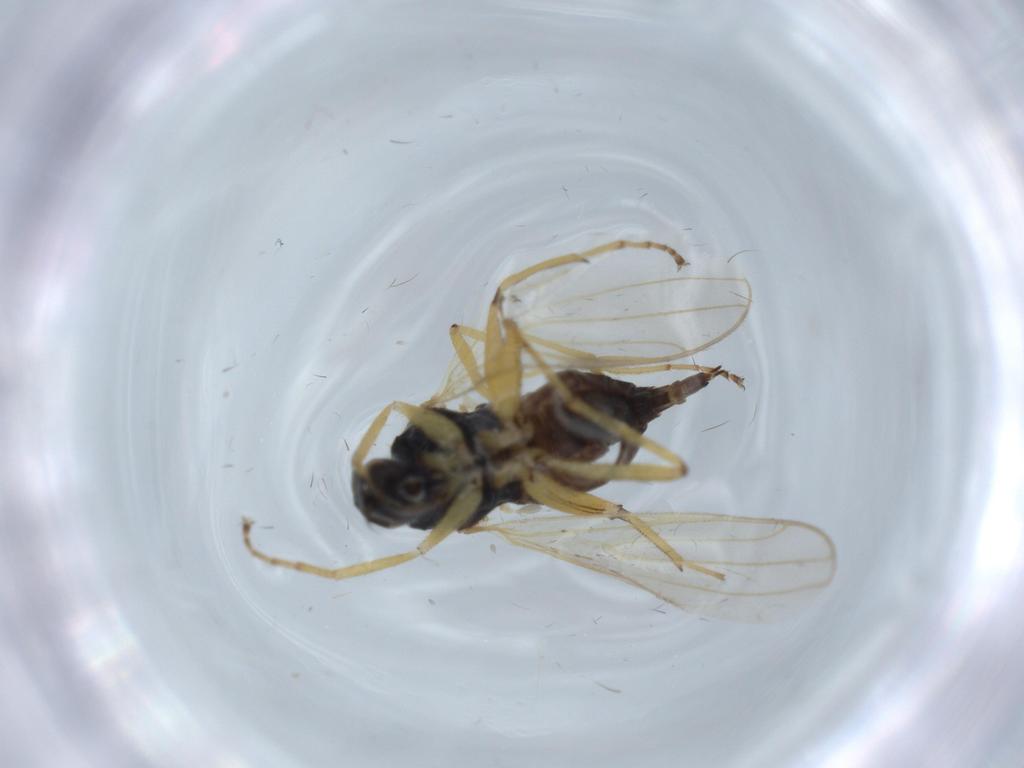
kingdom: Animalia
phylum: Arthropoda
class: Insecta
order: Diptera
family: Hybotidae
